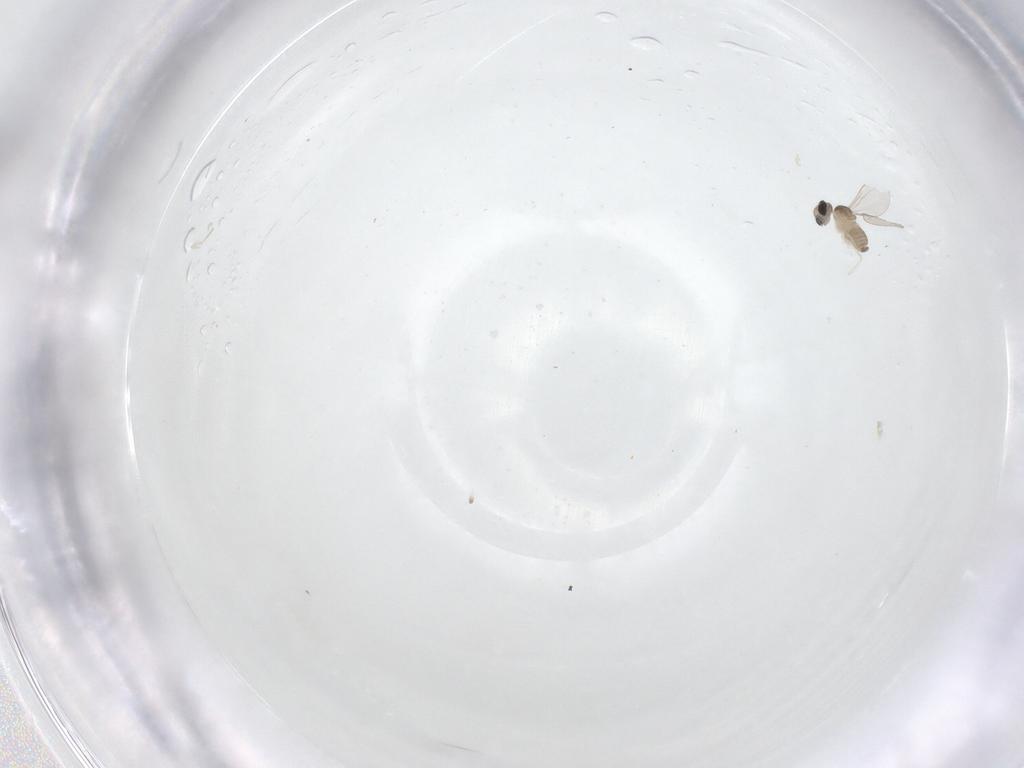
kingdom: Animalia
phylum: Arthropoda
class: Insecta
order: Diptera
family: Cecidomyiidae
